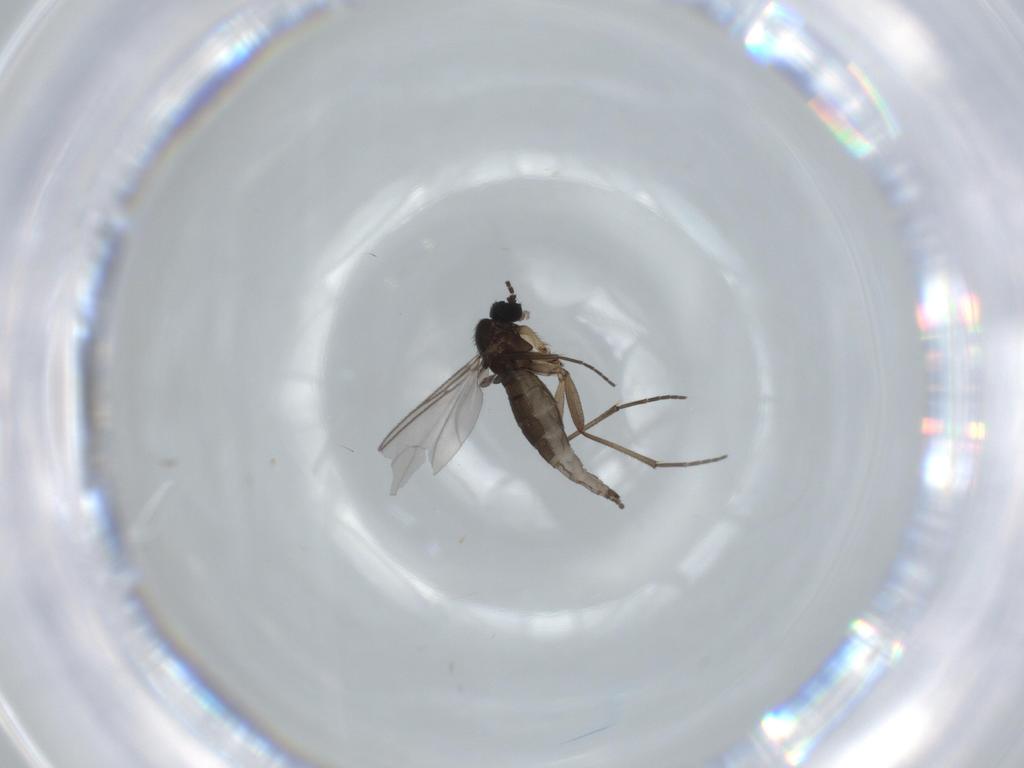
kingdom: Animalia
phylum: Arthropoda
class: Insecta
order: Diptera
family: Sciaridae
